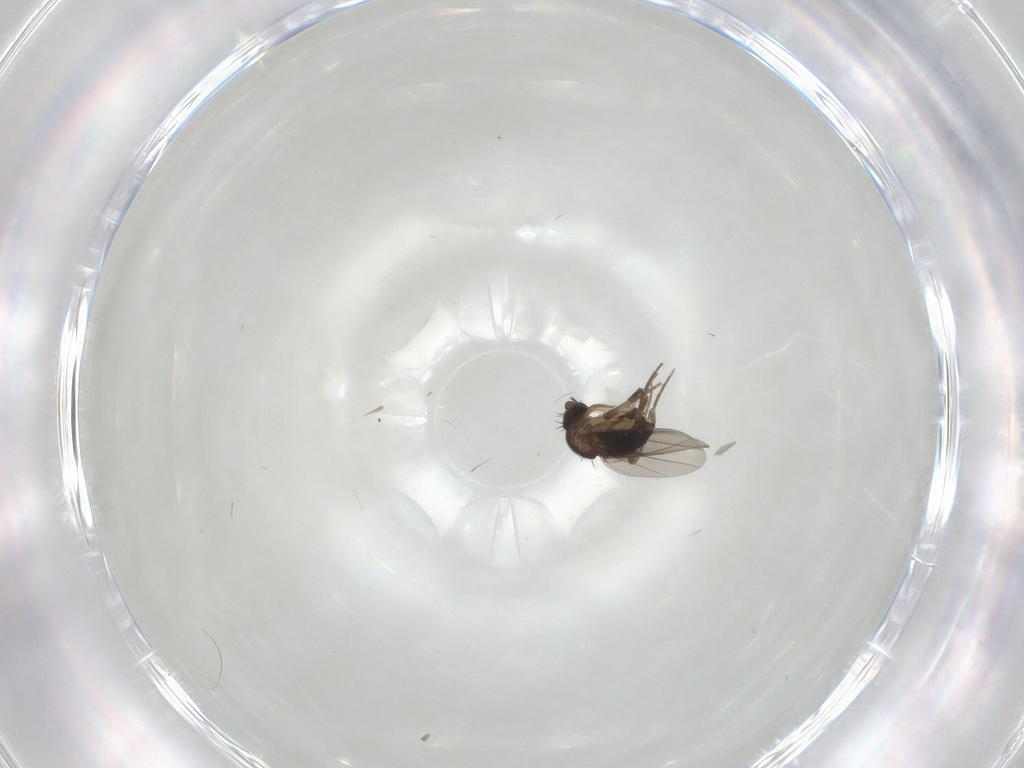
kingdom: Animalia
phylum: Arthropoda
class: Insecta
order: Diptera
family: Phoridae
